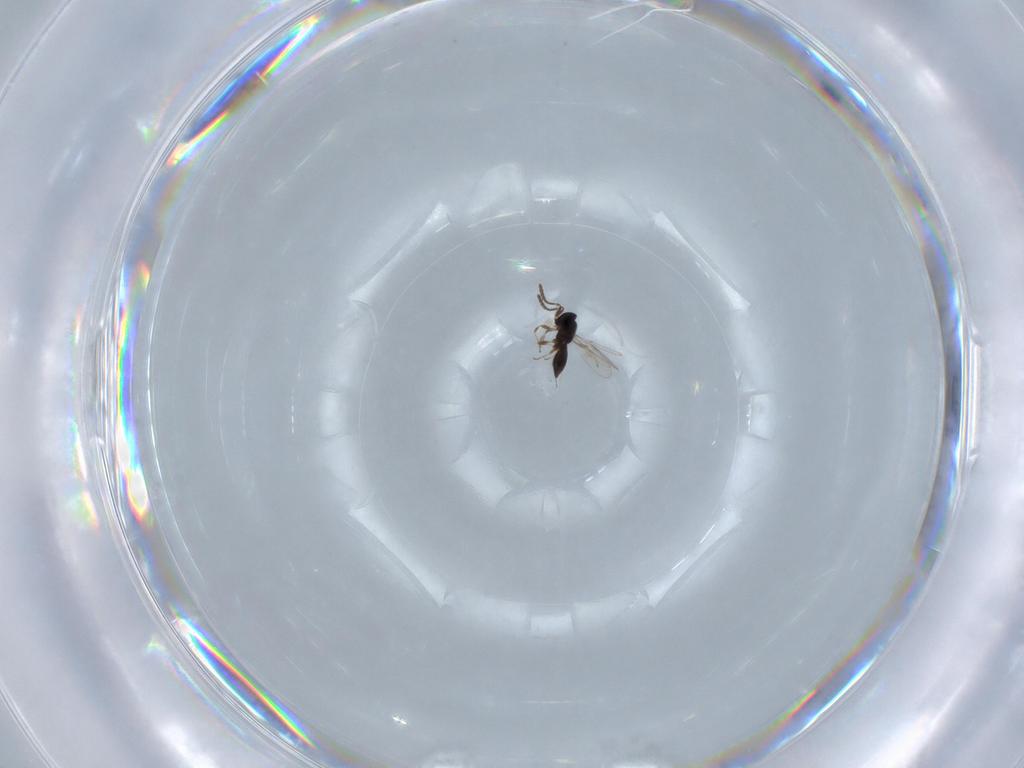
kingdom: Animalia
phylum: Arthropoda
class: Insecta
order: Hymenoptera
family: Scelionidae
